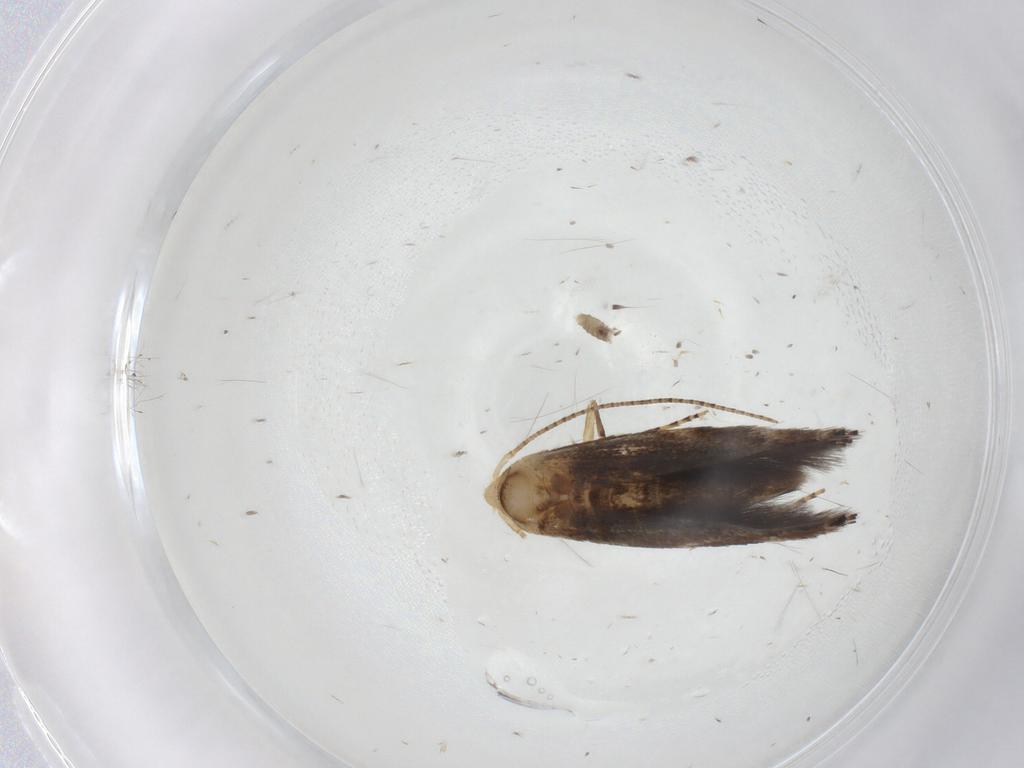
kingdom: Animalia
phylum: Arthropoda
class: Insecta
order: Lepidoptera
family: Bucculatricidae
